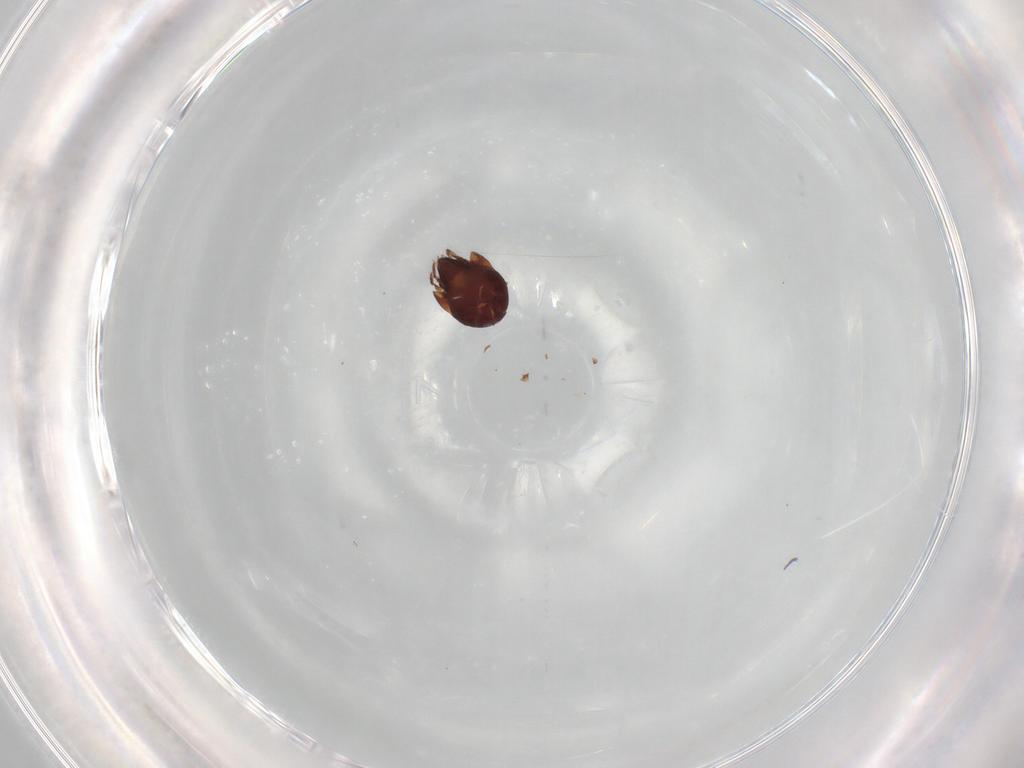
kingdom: Animalia
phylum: Arthropoda
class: Arachnida
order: Sarcoptiformes
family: Humerobatidae
